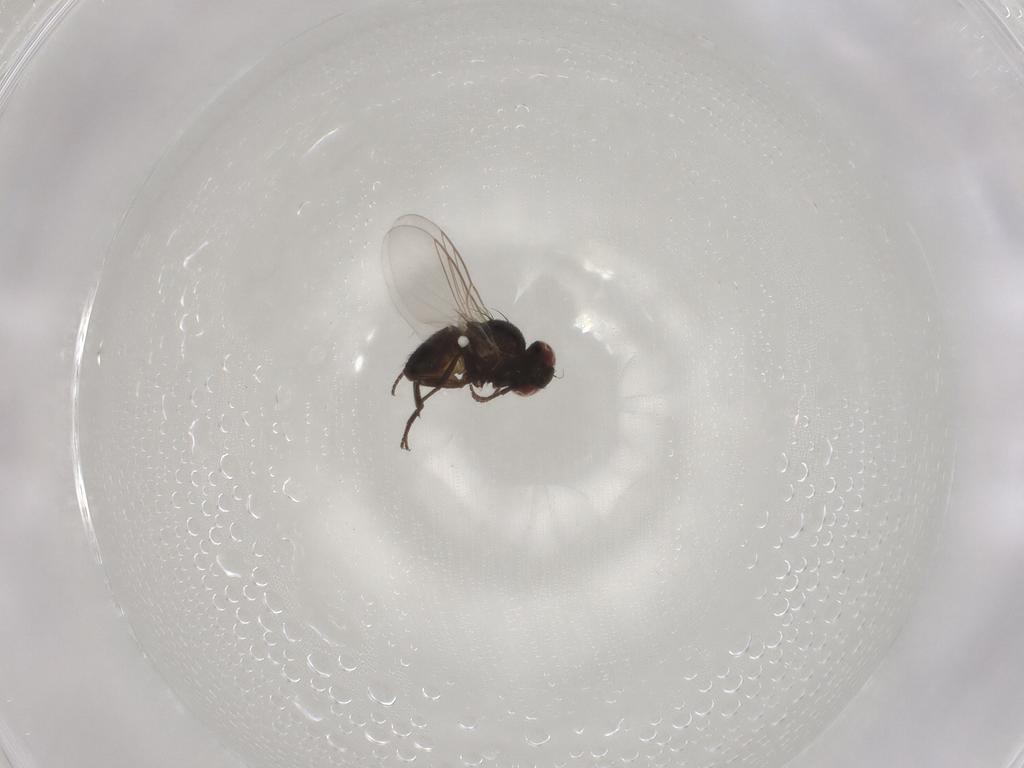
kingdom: Animalia
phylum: Arthropoda
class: Insecta
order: Diptera
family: Agromyzidae
